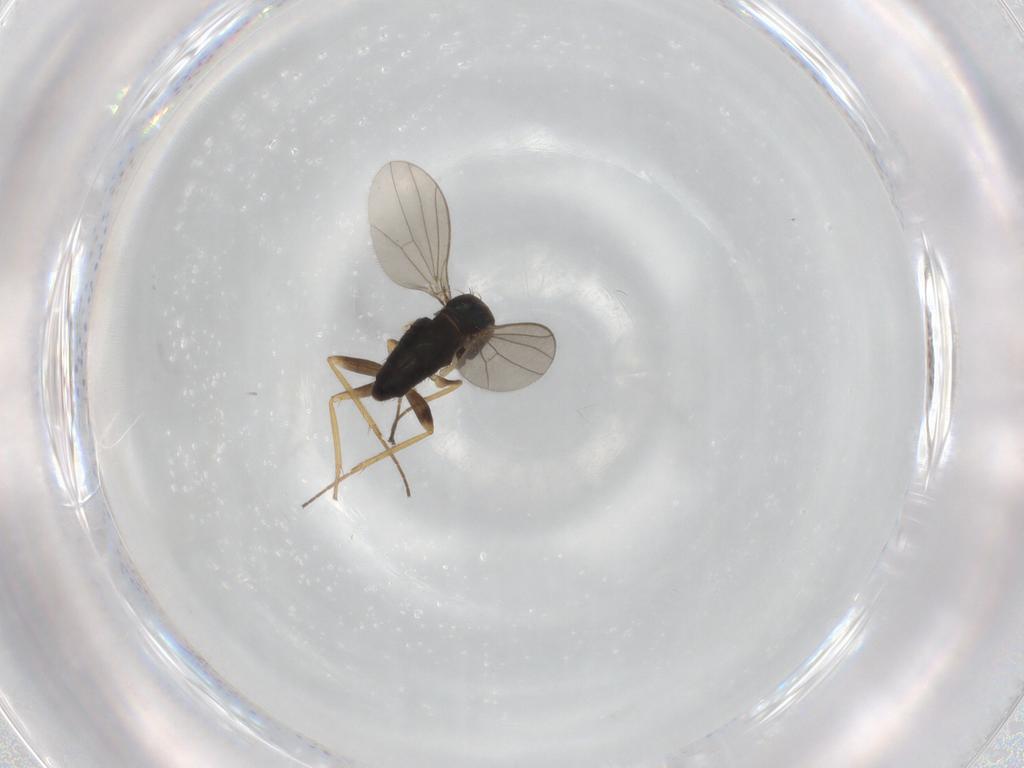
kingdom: Animalia
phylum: Arthropoda
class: Insecta
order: Diptera
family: Dolichopodidae
